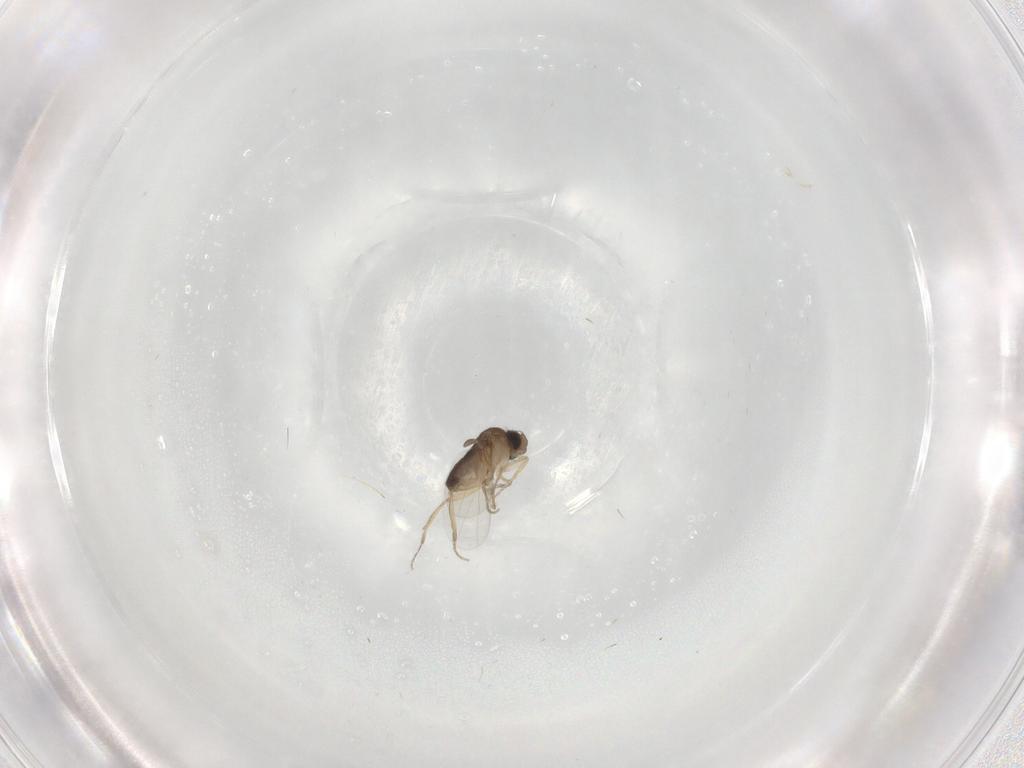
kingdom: Animalia
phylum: Arthropoda
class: Insecta
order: Diptera
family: Cecidomyiidae
